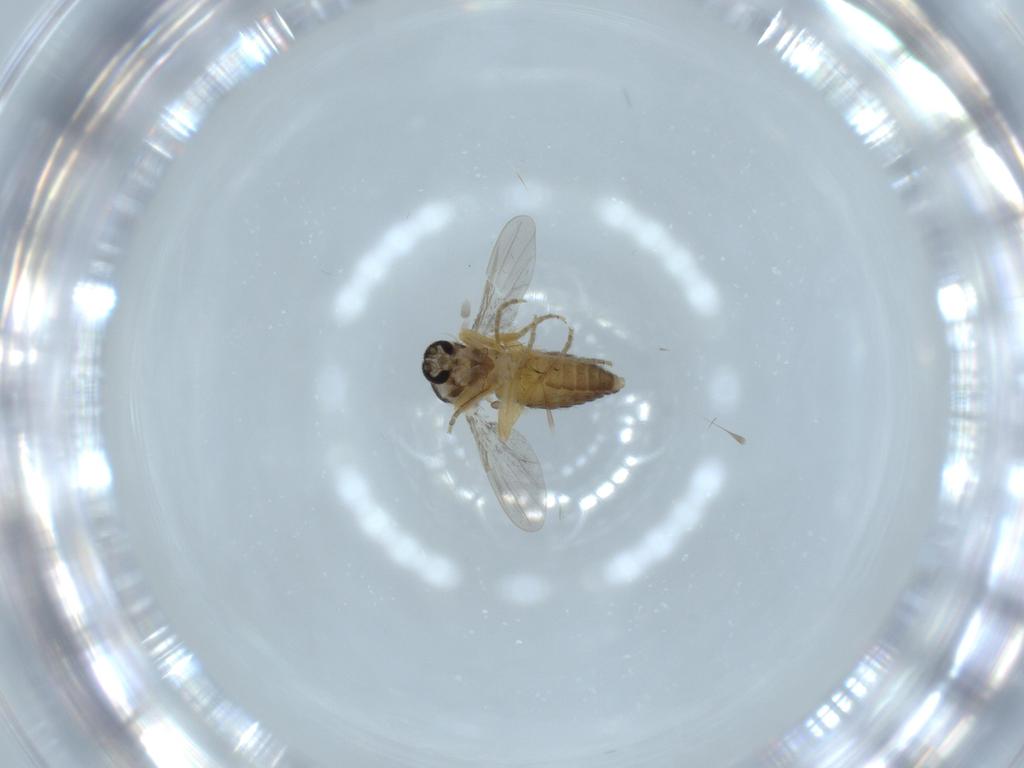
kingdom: Animalia
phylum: Arthropoda
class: Insecta
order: Diptera
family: Ceratopogonidae
